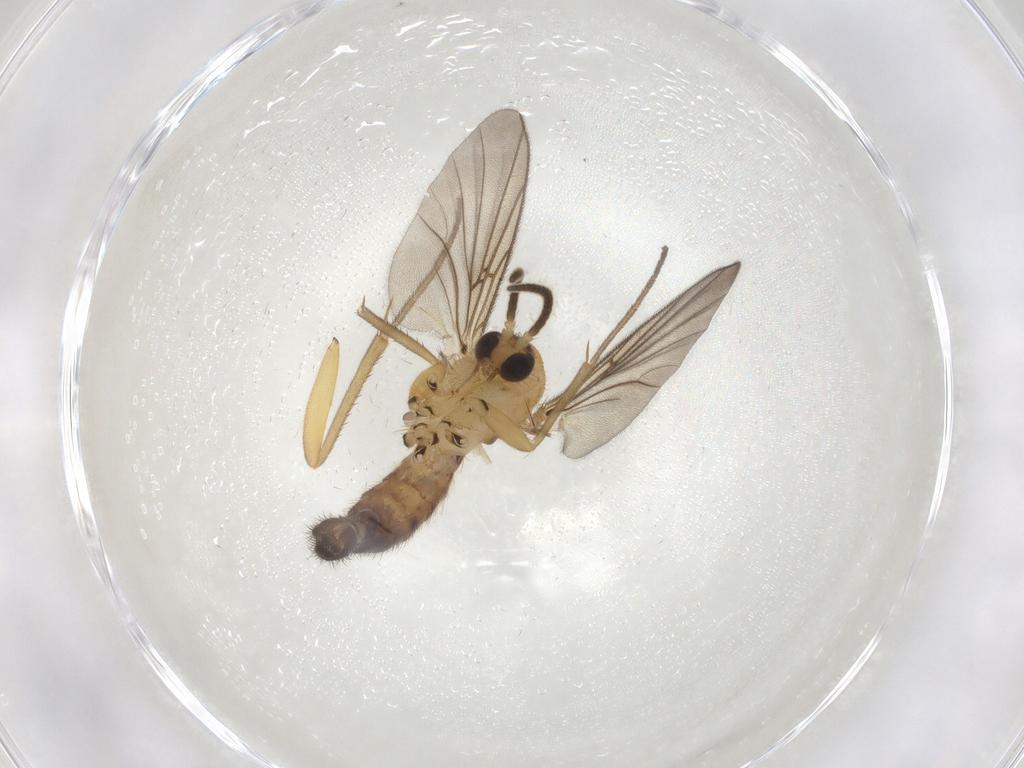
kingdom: Animalia
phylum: Arthropoda
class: Insecta
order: Diptera
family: Mycetophilidae
